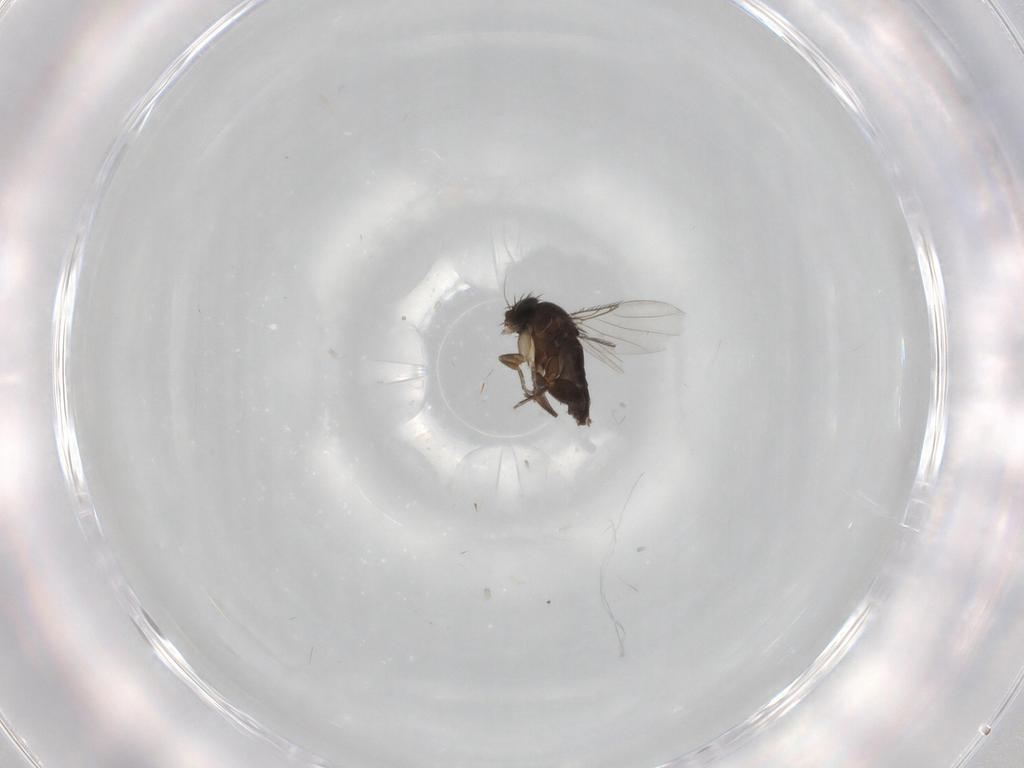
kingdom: Animalia
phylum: Arthropoda
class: Insecta
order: Diptera
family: Phoridae
